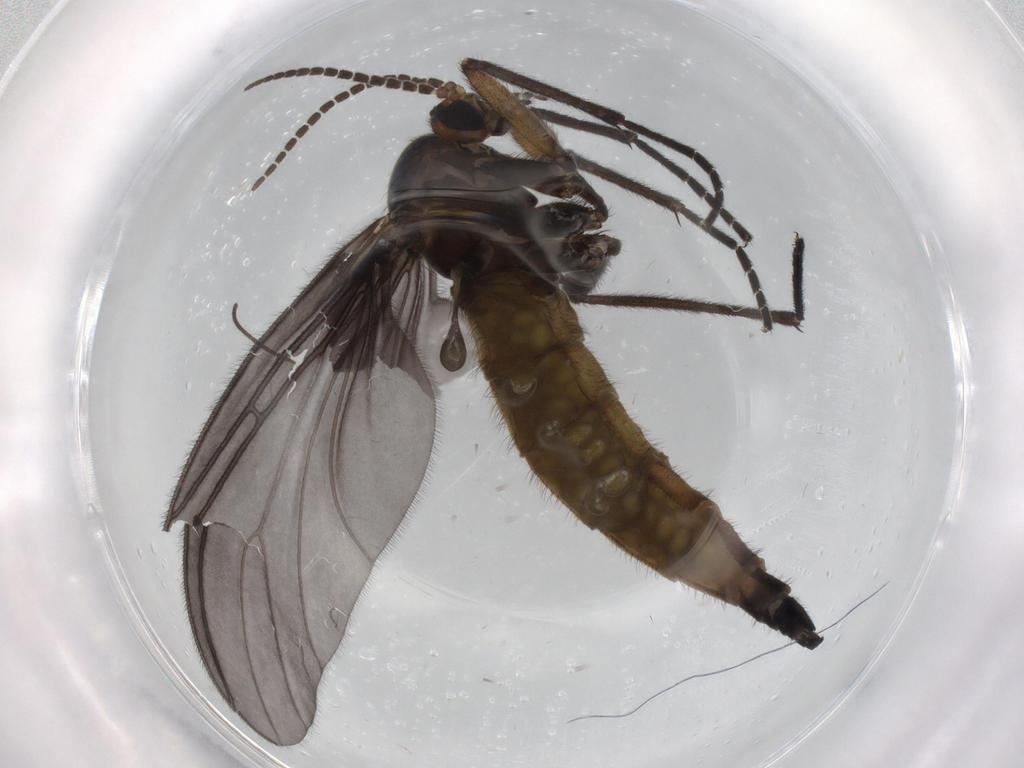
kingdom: Animalia
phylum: Arthropoda
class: Insecta
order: Diptera
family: Sciaridae
